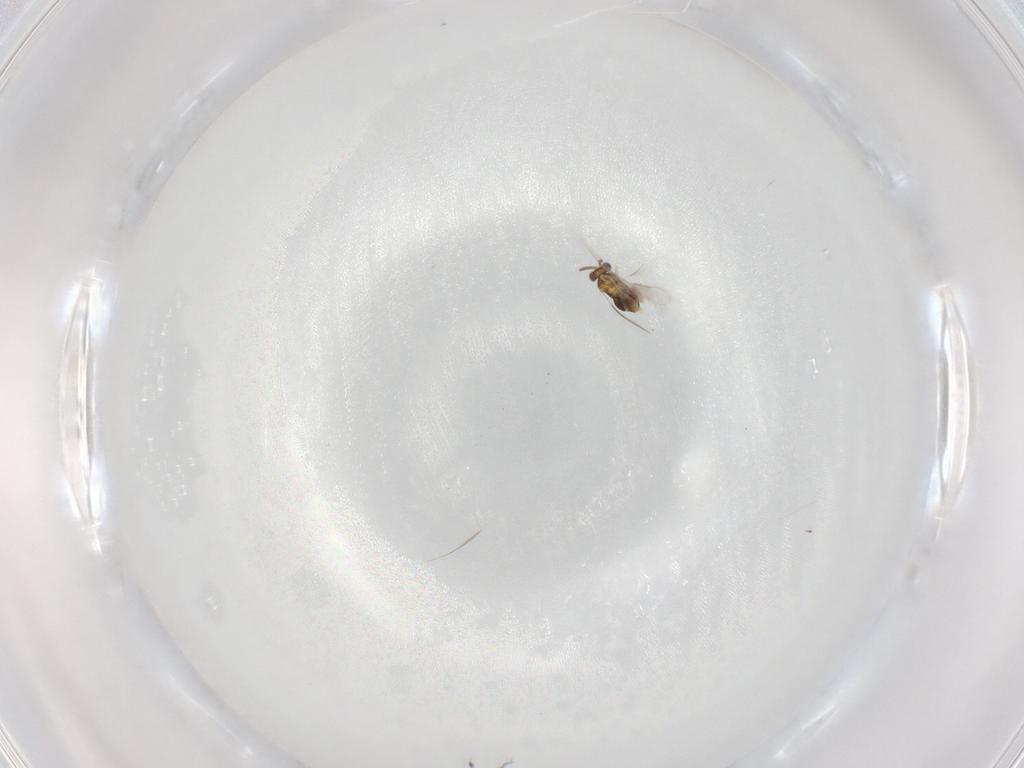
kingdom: Animalia
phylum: Arthropoda
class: Insecta
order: Hymenoptera
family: Aphelinidae
